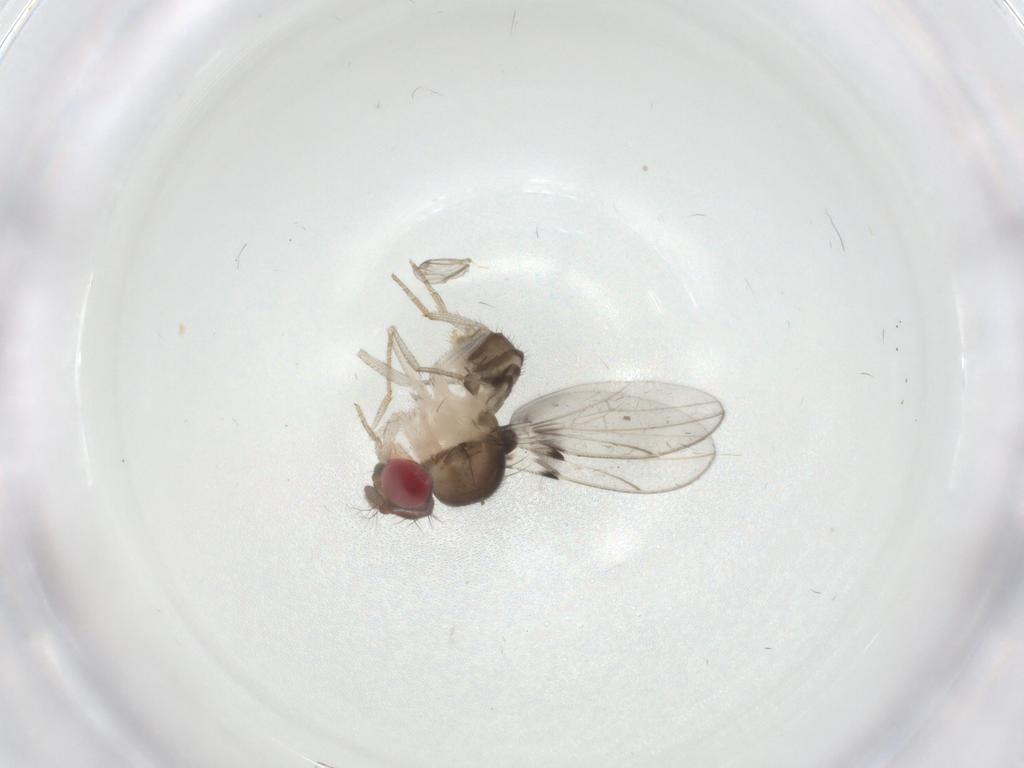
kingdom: Animalia
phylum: Arthropoda
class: Insecta
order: Diptera
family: Drosophilidae
